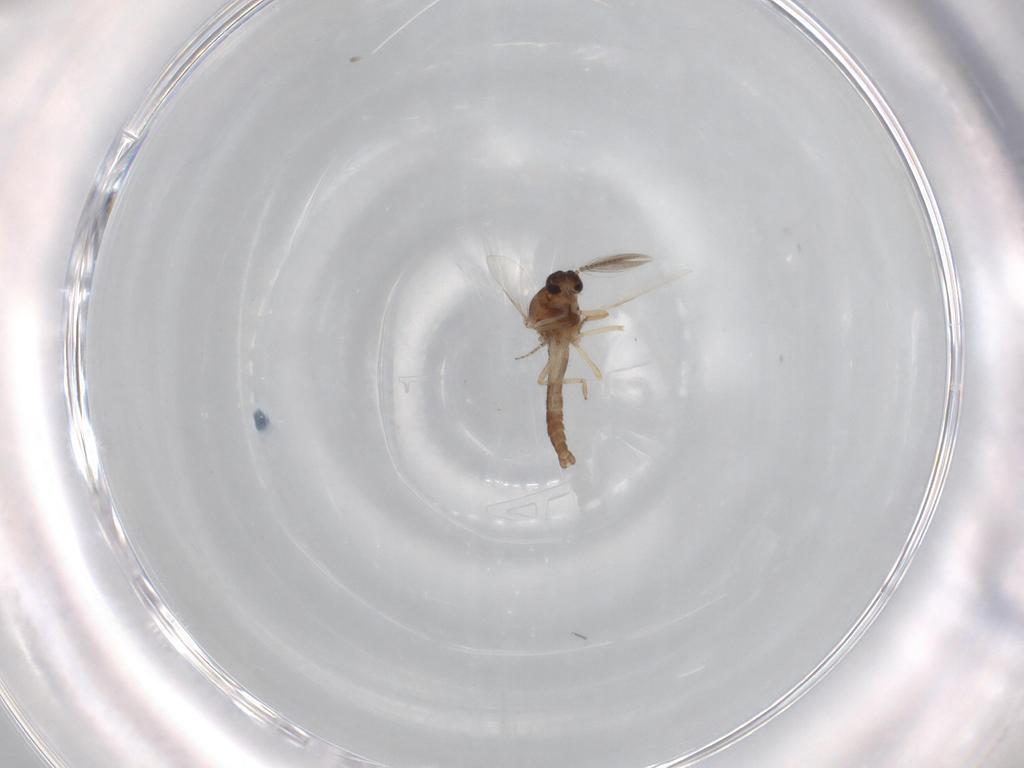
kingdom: Animalia
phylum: Arthropoda
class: Insecta
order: Diptera
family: Ceratopogonidae
